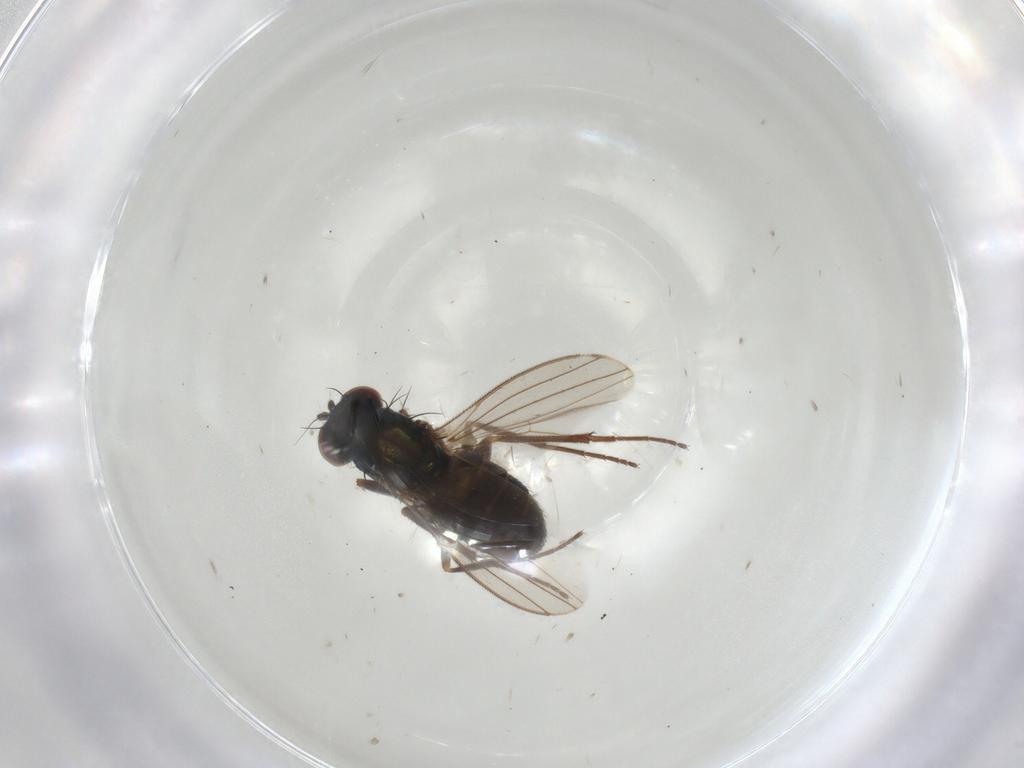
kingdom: Animalia
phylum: Arthropoda
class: Insecta
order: Diptera
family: Dolichopodidae
